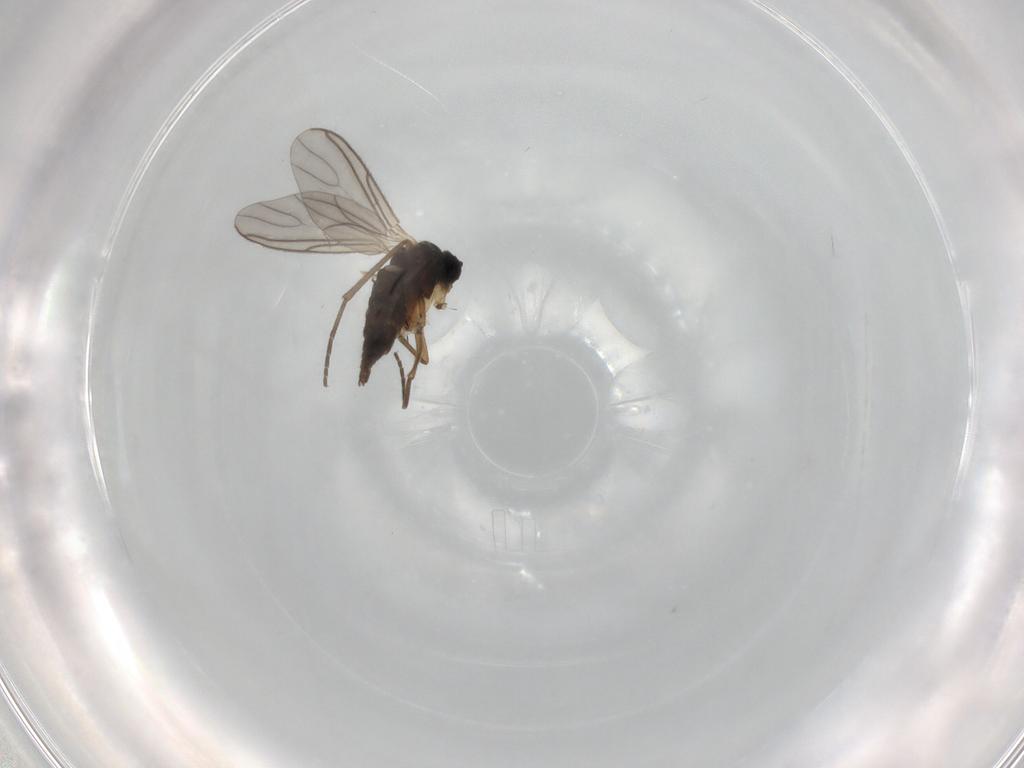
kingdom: Animalia
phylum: Arthropoda
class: Insecta
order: Diptera
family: Sciaridae
